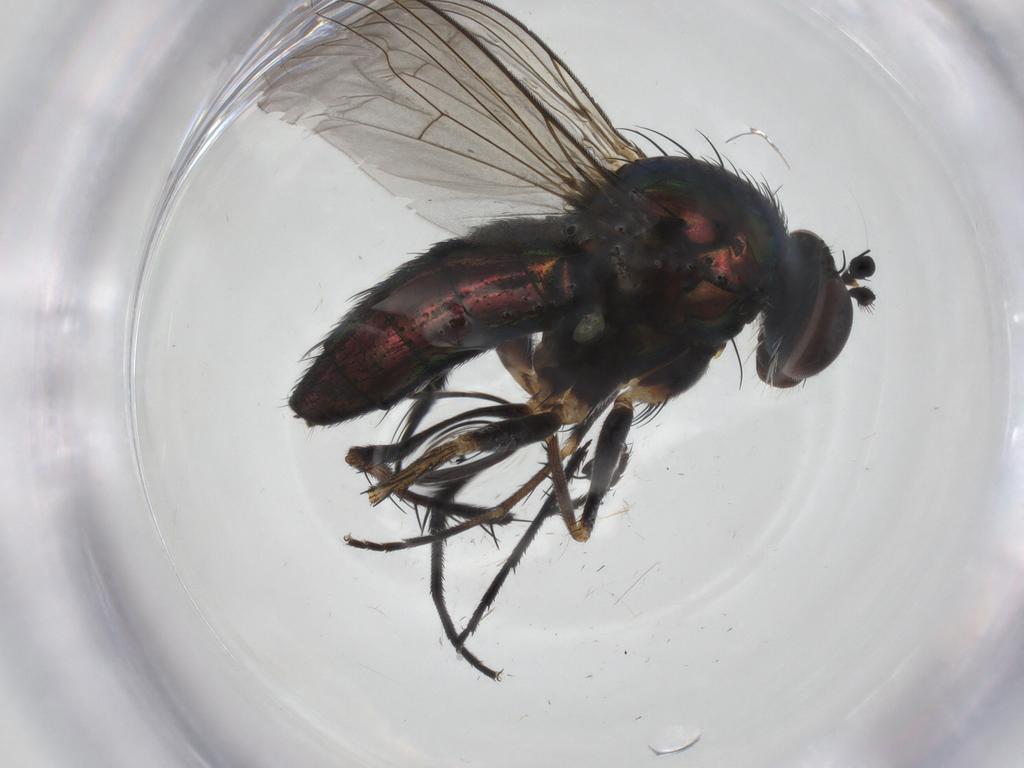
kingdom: Animalia
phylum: Arthropoda
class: Insecta
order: Diptera
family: Dolichopodidae
